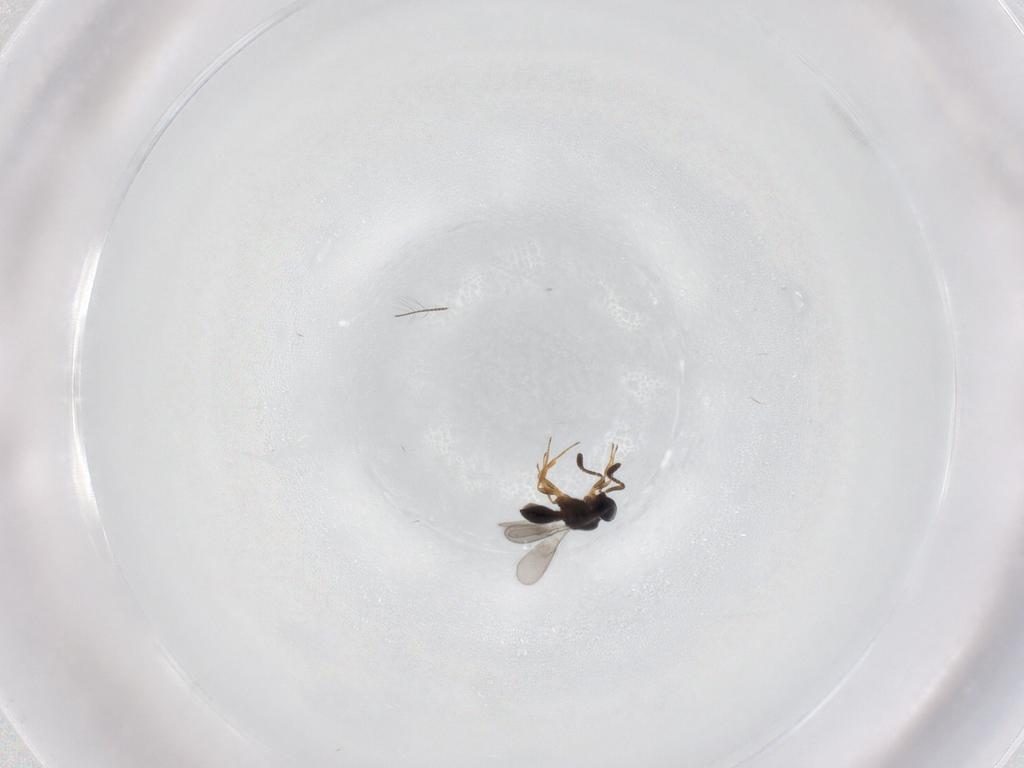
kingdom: Animalia
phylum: Arthropoda
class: Insecta
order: Hymenoptera
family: Scelionidae
